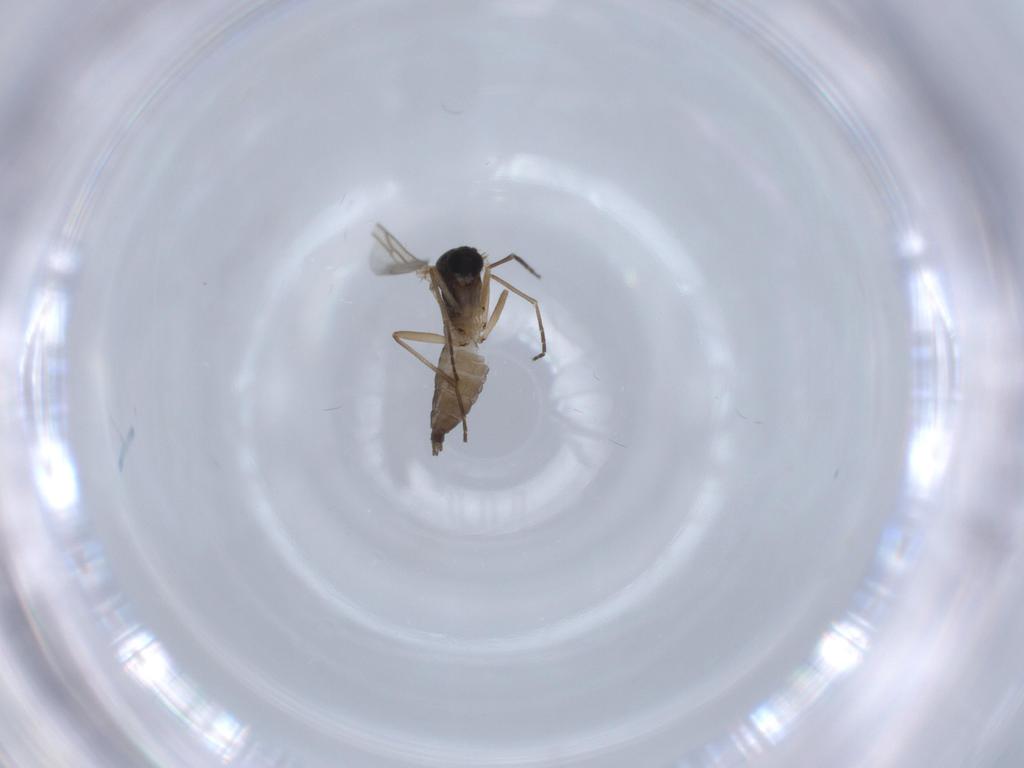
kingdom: Animalia
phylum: Arthropoda
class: Insecta
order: Diptera
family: Sciaridae
